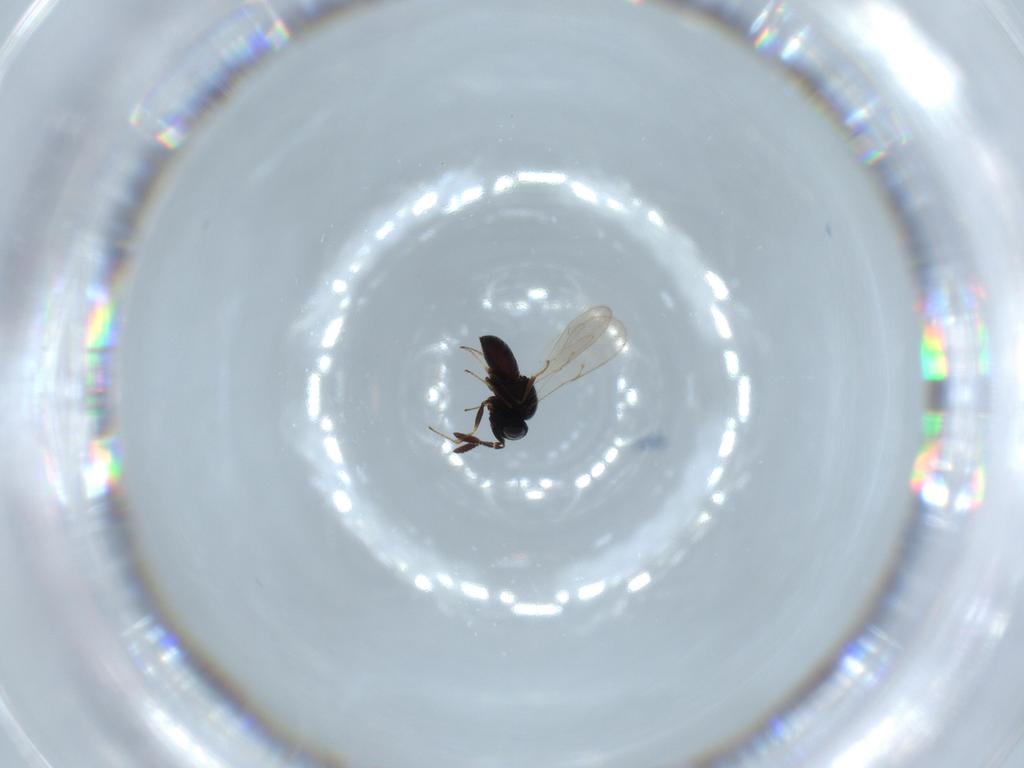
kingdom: Animalia
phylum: Arthropoda
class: Insecta
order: Hymenoptera
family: Scelionidae
